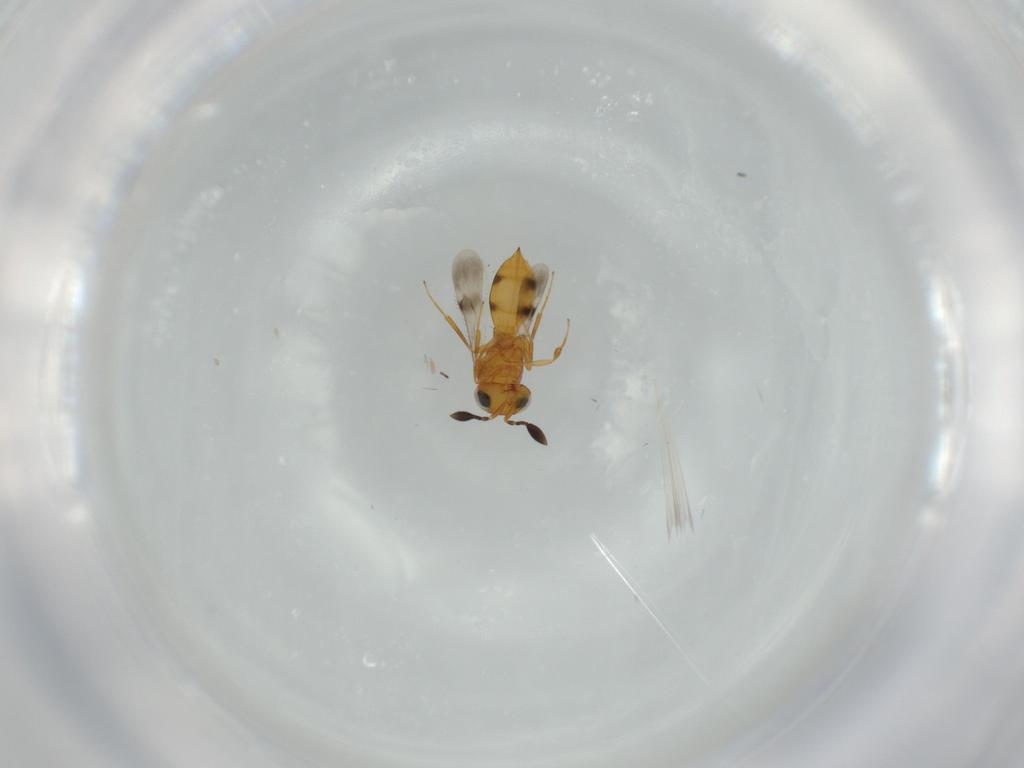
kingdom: Animalia
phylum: Arthropoda
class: Insecta
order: Hymenoptera
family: Scelionidae
